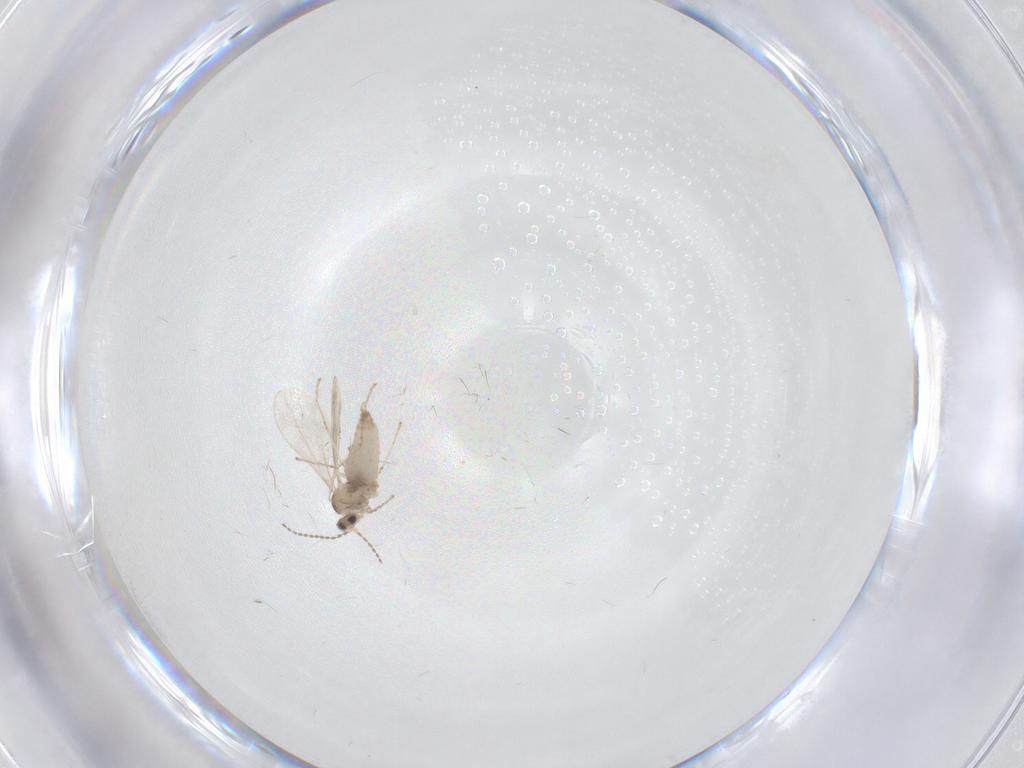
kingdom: Animalia
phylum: Arthropoda
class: Insecta
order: Diptera
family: Cecidomyiidae
